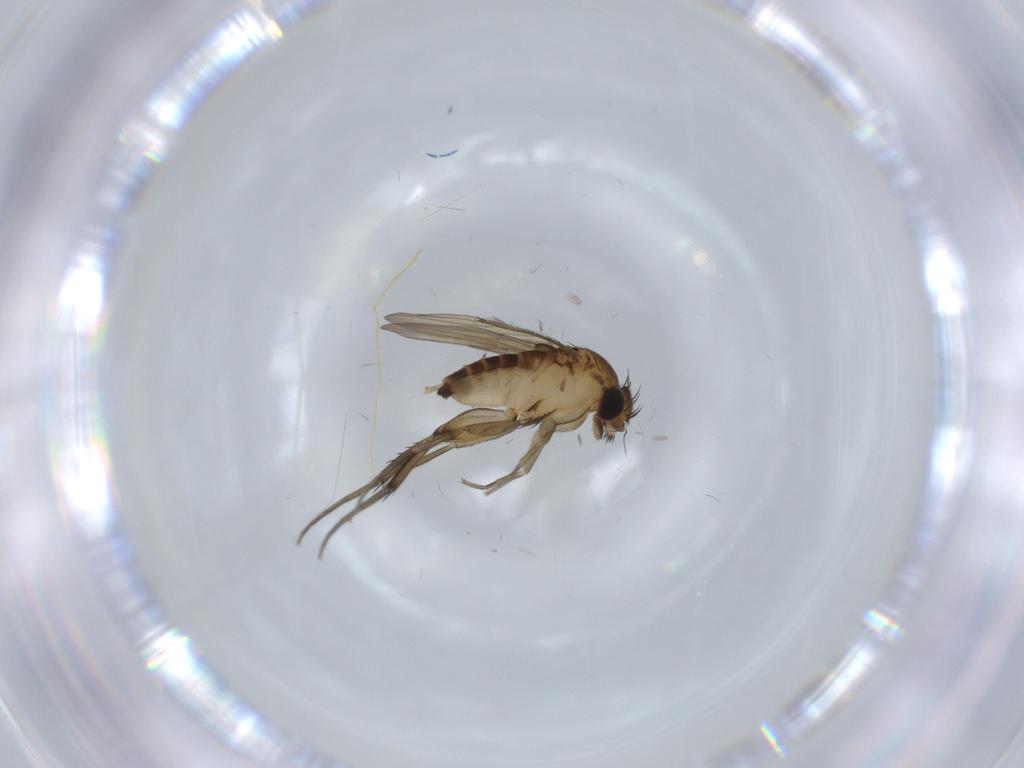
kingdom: Animalia
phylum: Arthropoda
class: Insecta
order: Diptera
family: Phoridae
